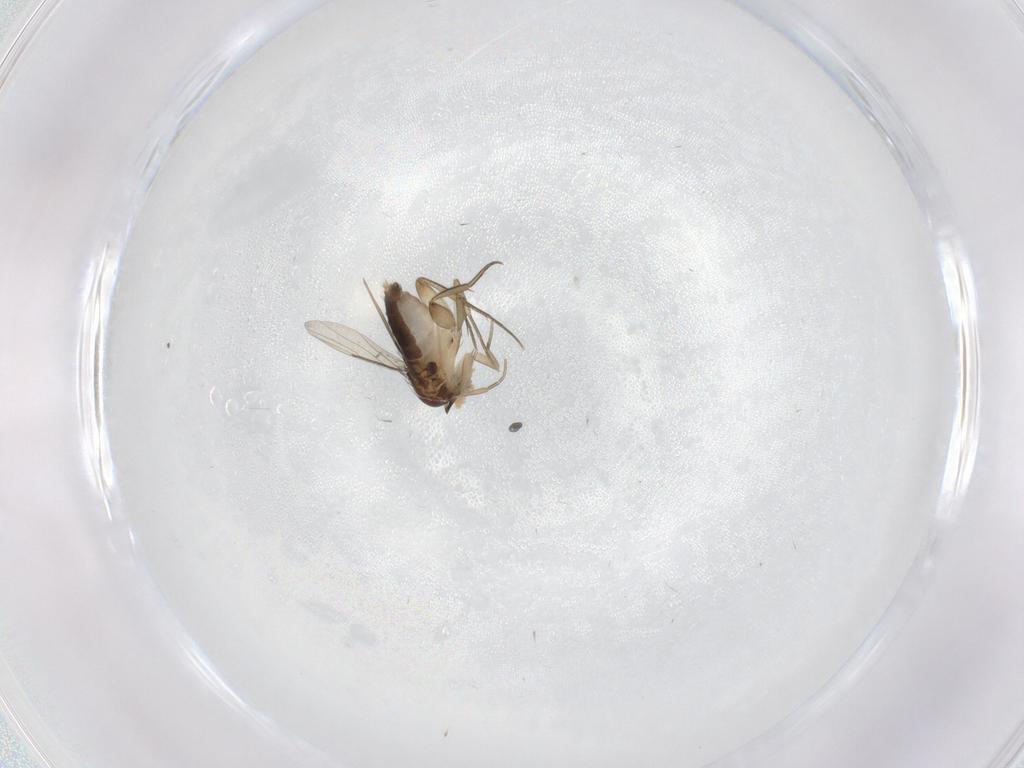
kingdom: Animalia
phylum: Arthropoda
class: Insecta
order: Diptera
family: Phoridae
